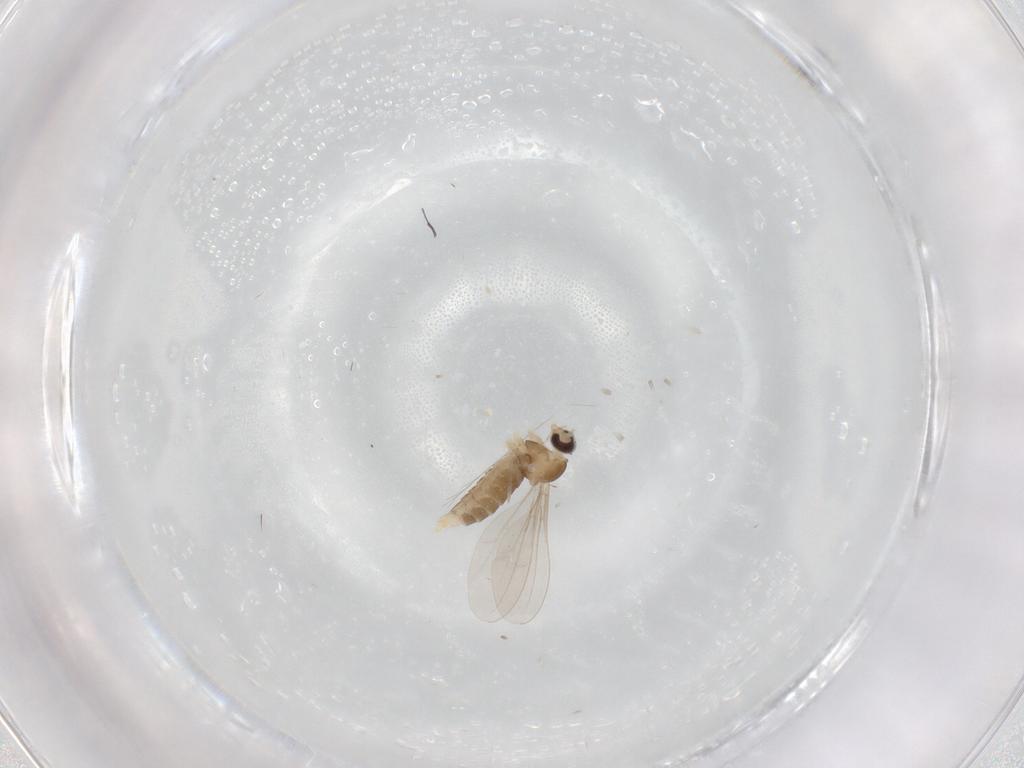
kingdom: Animalia
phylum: Arthropoda
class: Insecta
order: Diptera
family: Cecidomyiidae
